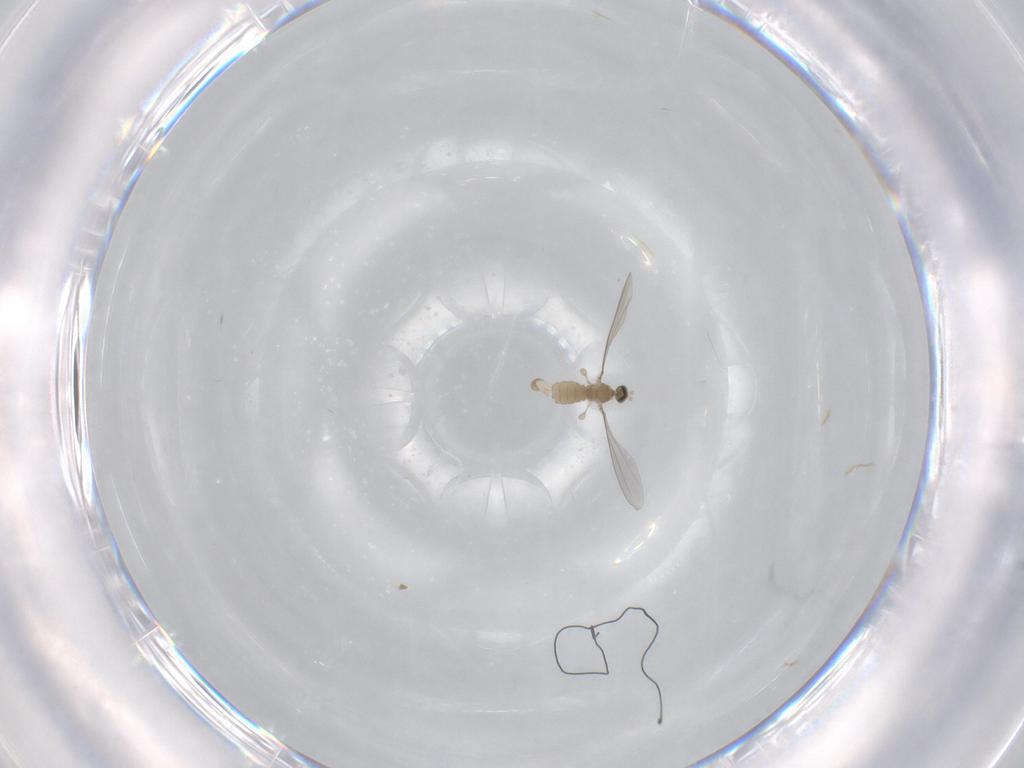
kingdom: Animalia
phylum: Arthropoda
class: Insecta
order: Diptera
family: Cecidomyiidae
